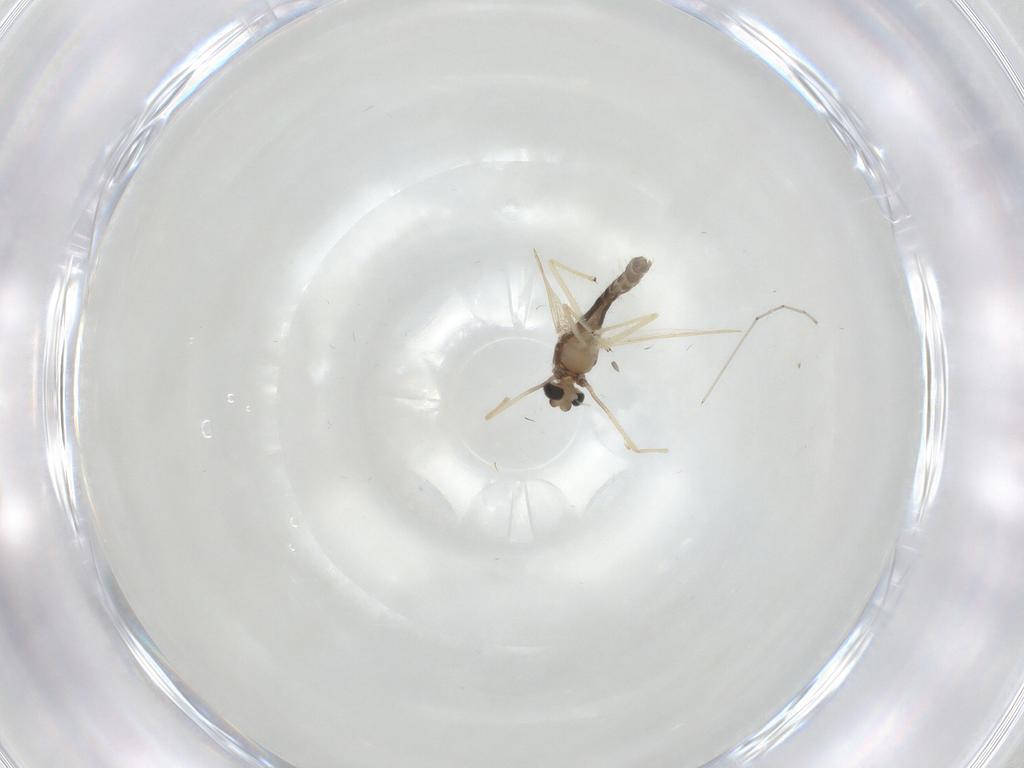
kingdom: Animalia
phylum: Arthropoda
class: Insecta
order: Diptera
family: Chironomidae
